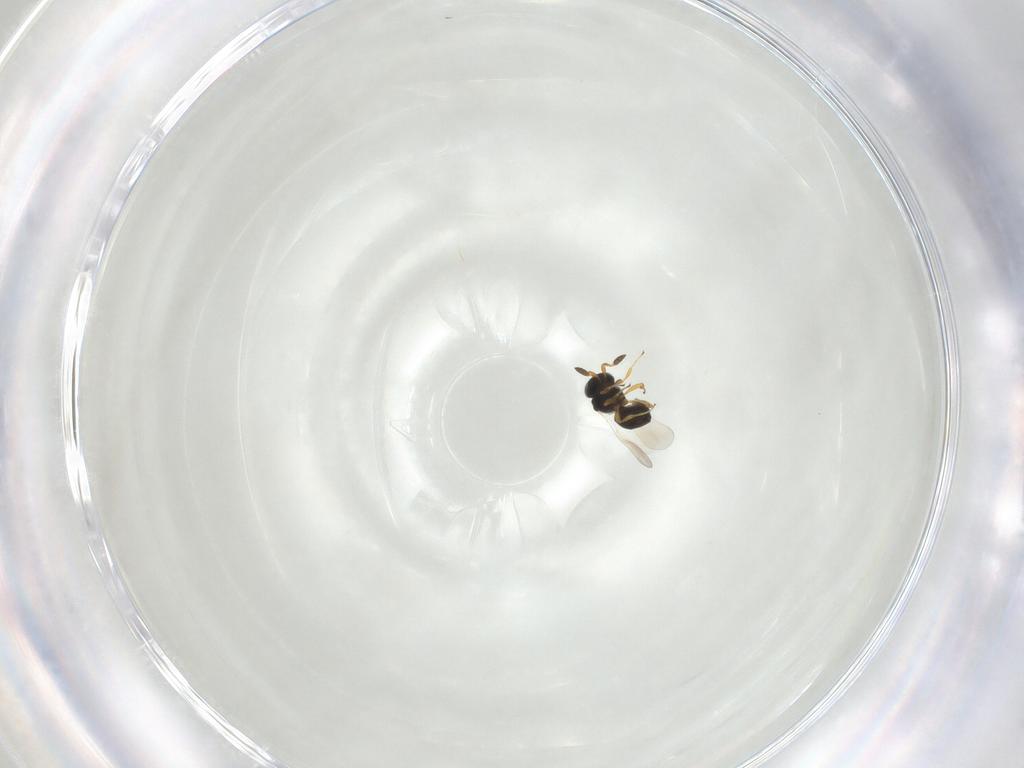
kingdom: Animalia
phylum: Arthropoda
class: Insecta
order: Hymenoptera
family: Platygastridae
